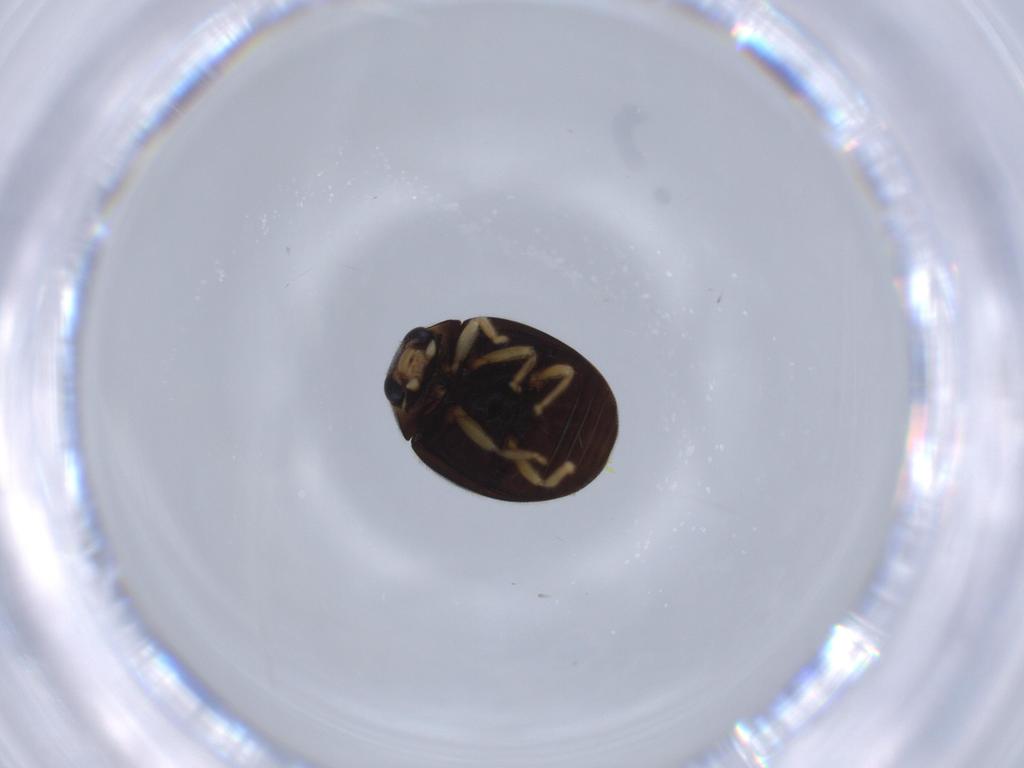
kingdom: Animalia
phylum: Arthropoda
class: Insecta
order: Coleoptera
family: Coccinellidae
